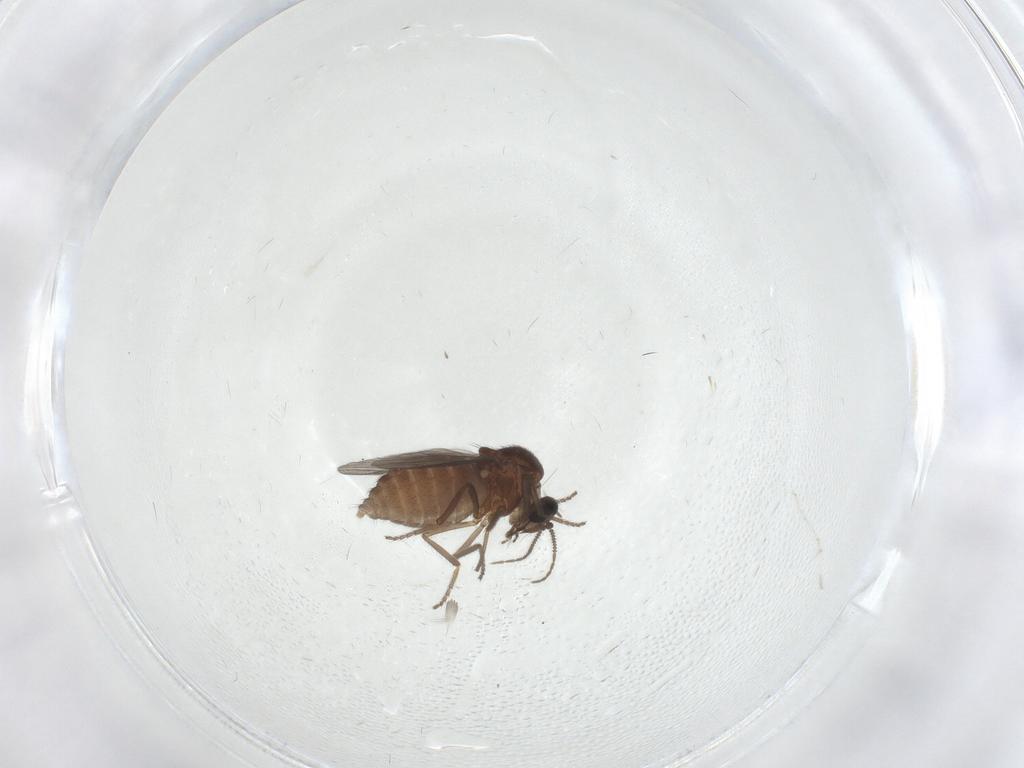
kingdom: Animalia
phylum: Arthropoda
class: Insecta
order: Diptera
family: Ceratopogonidae
